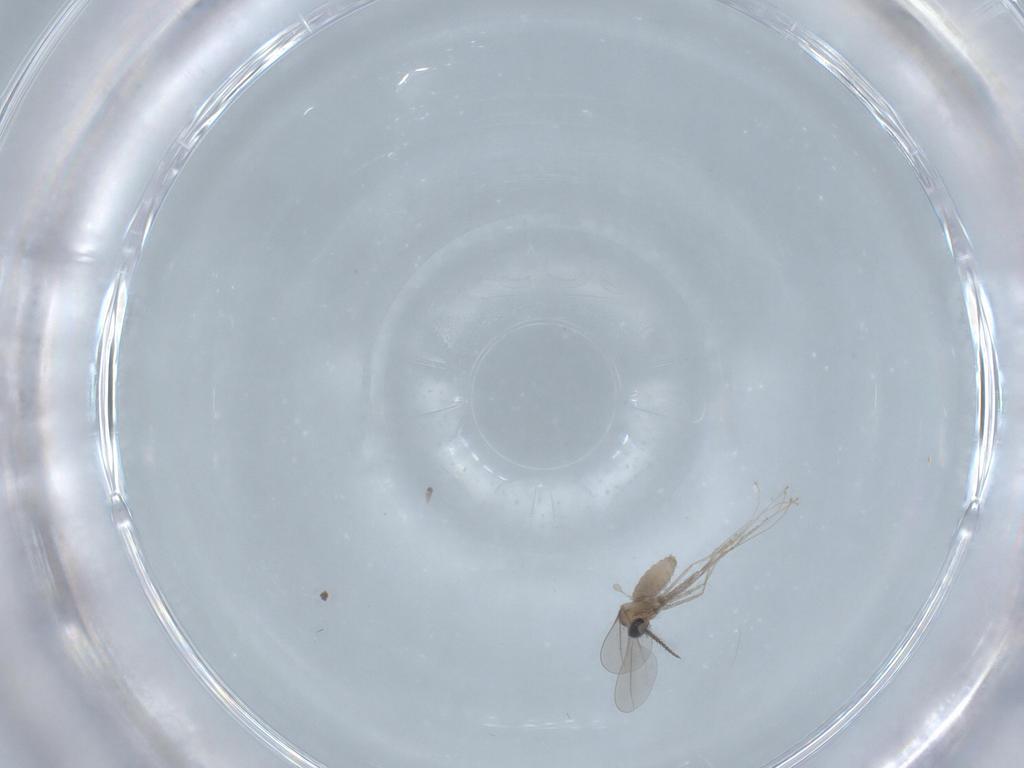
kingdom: Animalia
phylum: Arthropoda
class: Insecta
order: Diptera
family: Cecidomyiidae
